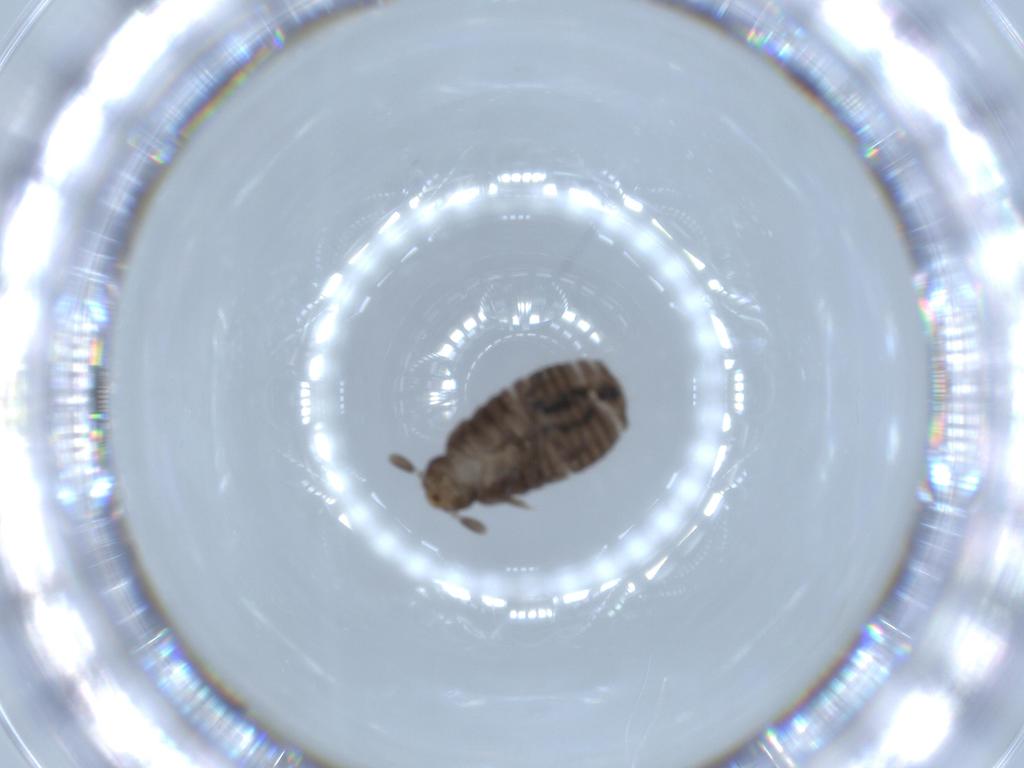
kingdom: Animalia
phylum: Arthropoda
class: Insecta
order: Coleoptera
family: Tenebrionidae
